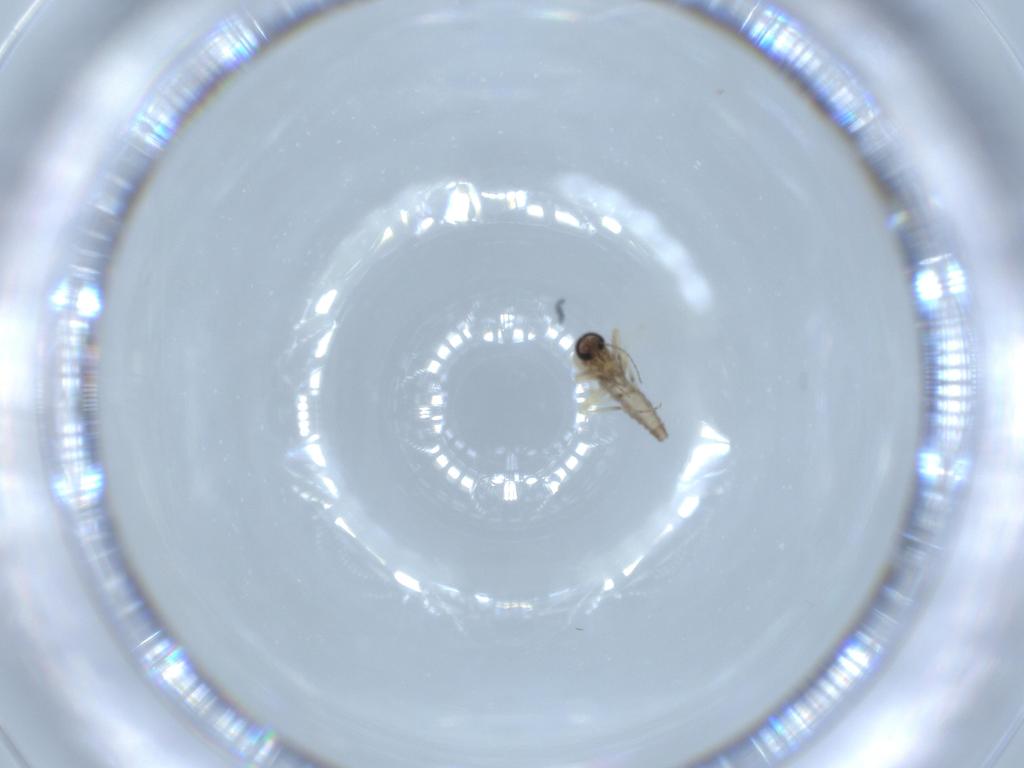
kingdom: Animalia
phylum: Arthropoda
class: Insecta
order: Diptera
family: Ceratopogonidae
